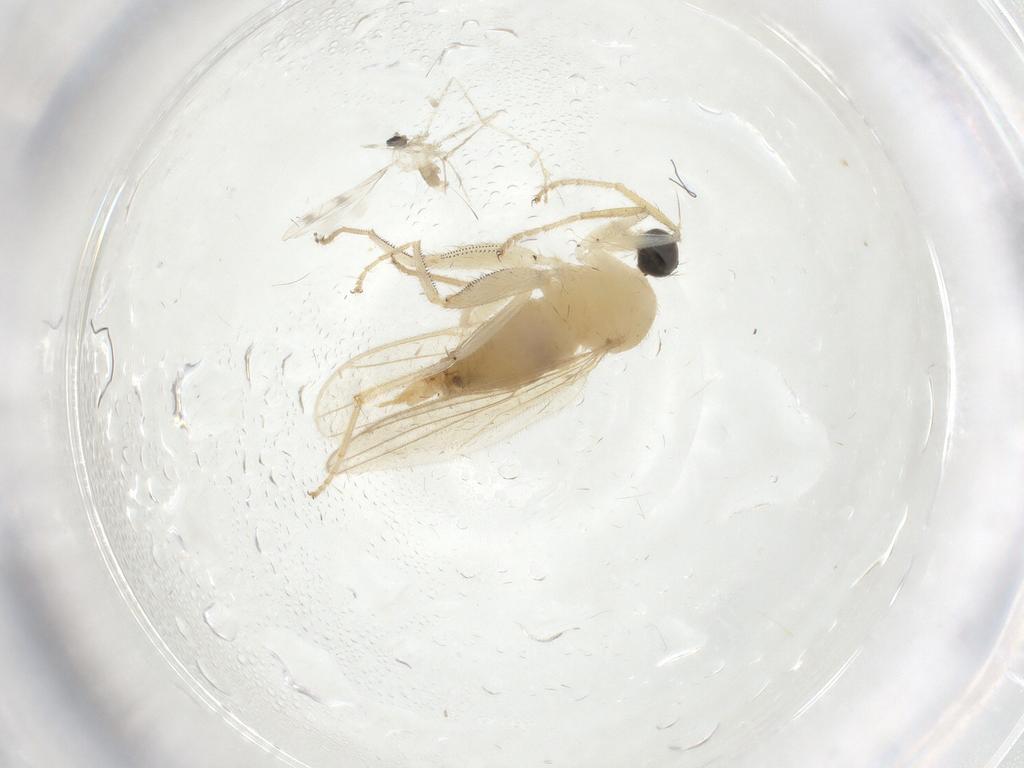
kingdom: Animalia
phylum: Arthropoda
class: Insecta
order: Diptera
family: Hybotidae
